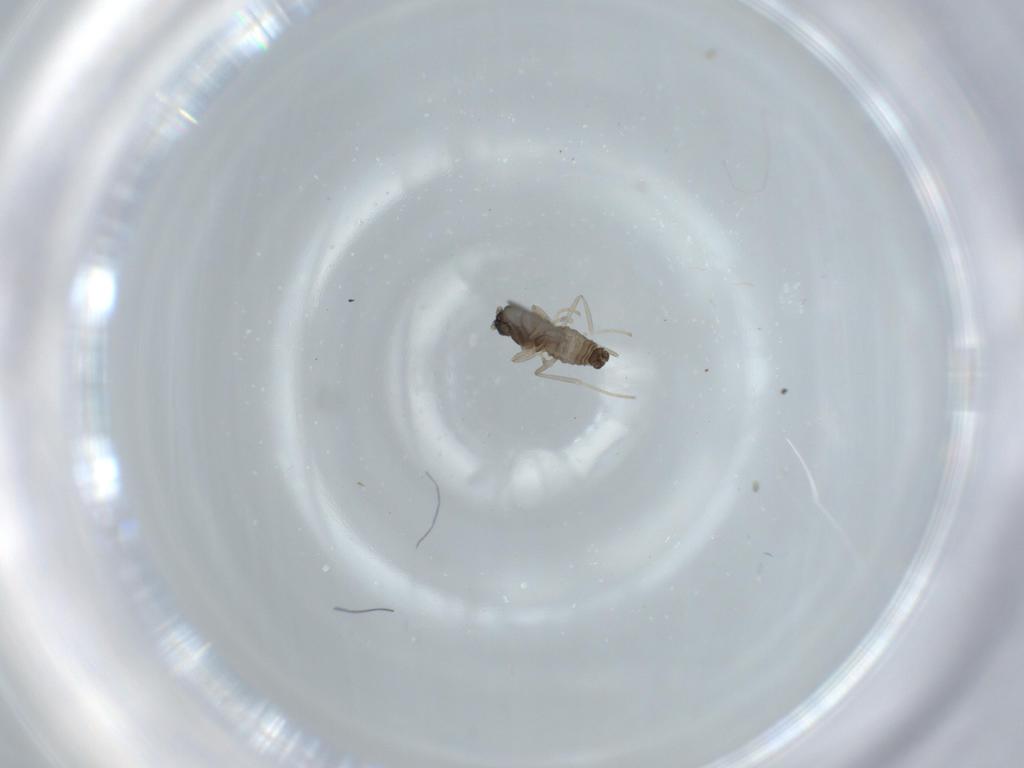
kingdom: Animalia
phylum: Arthropoda
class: Insecta
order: Diptera
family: Cecidomyiidae
